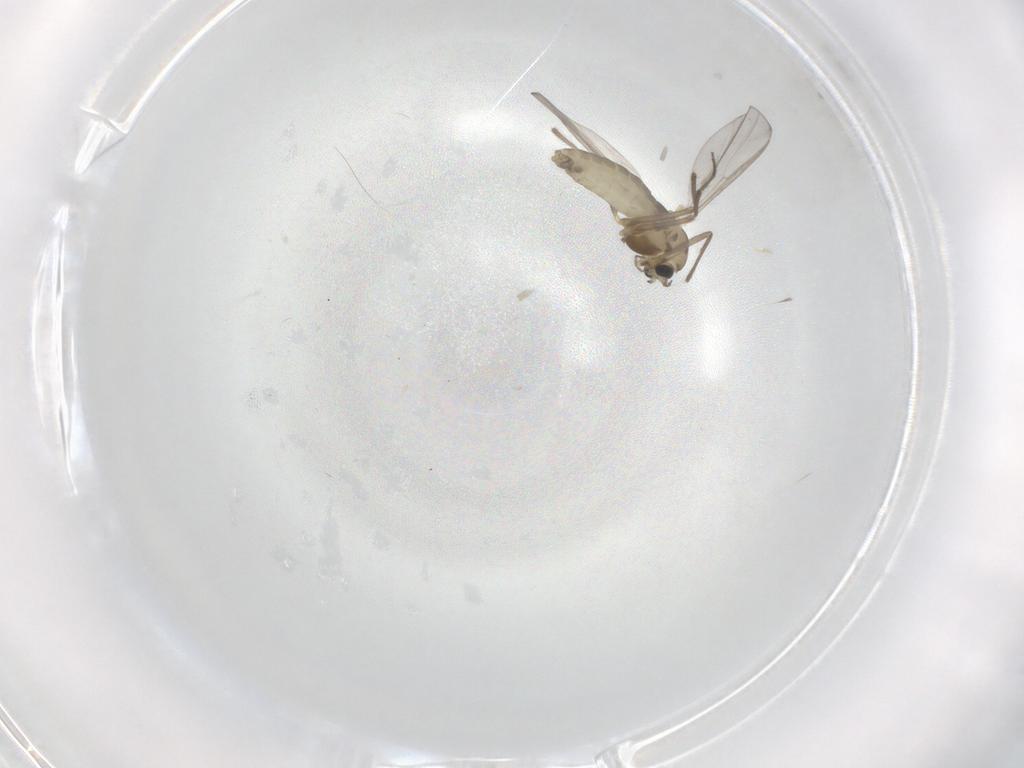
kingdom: Animalia
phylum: Arthropoda
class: Insecta
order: Diptera
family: Chironomidae
